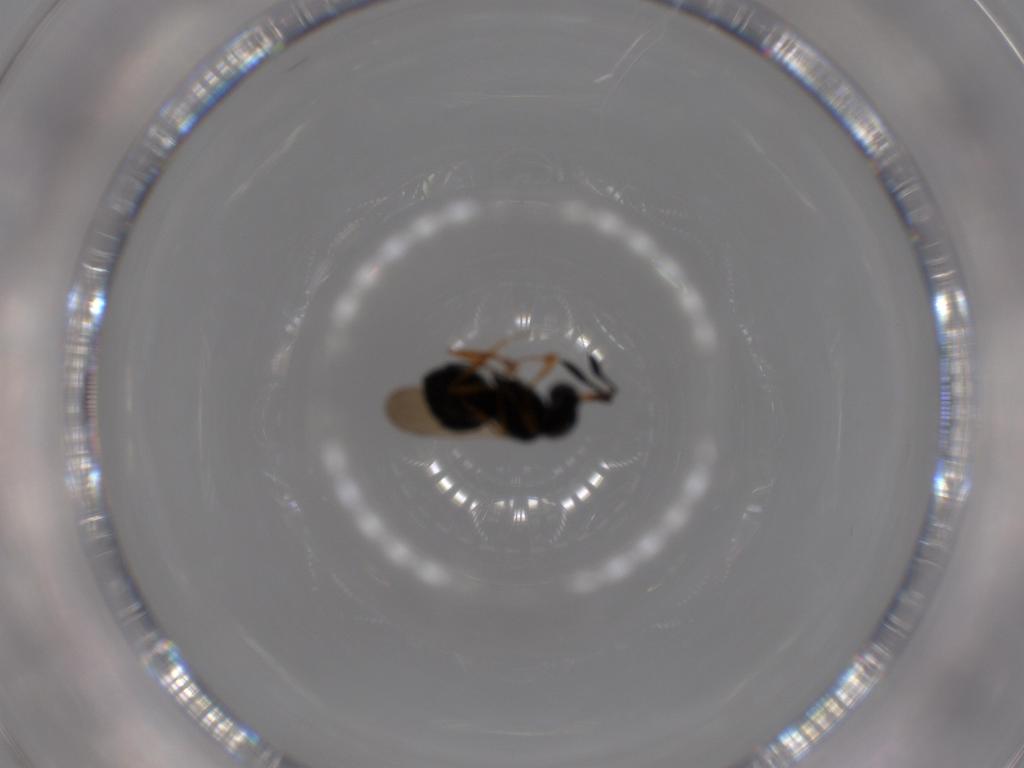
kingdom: Animalia
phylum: Arthropoda
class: Insecta
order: Hymenoptera
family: Scelionidae
